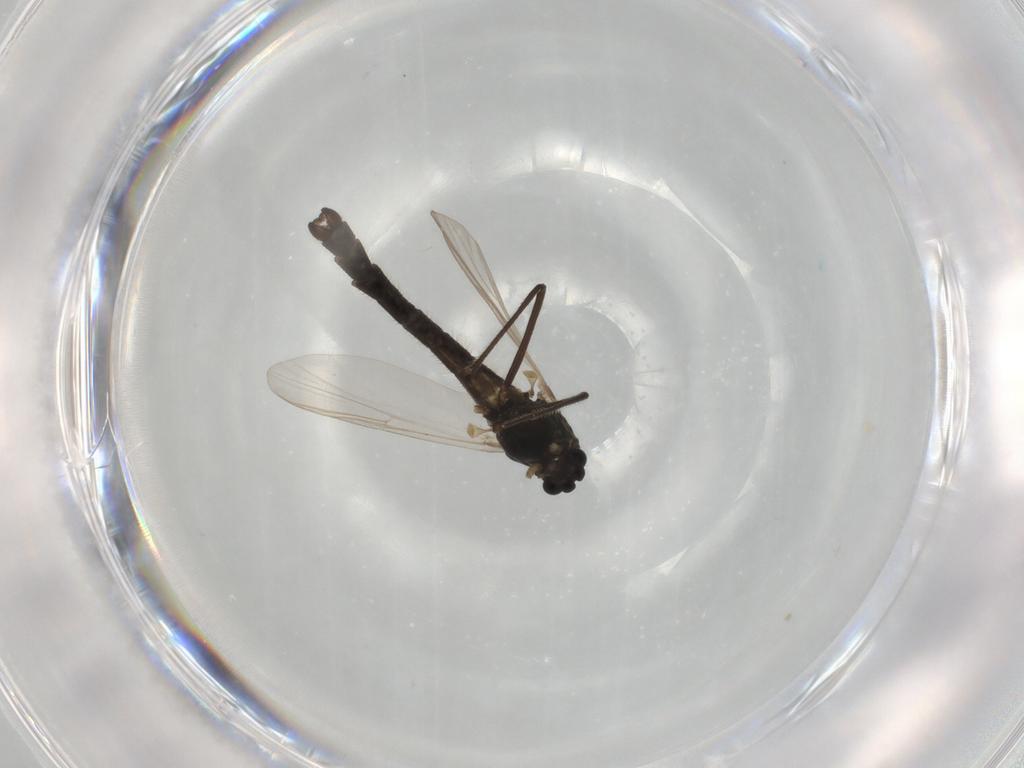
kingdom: Animalia
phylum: Arthropoda
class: Insecta
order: Diptera
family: Chironomidae
